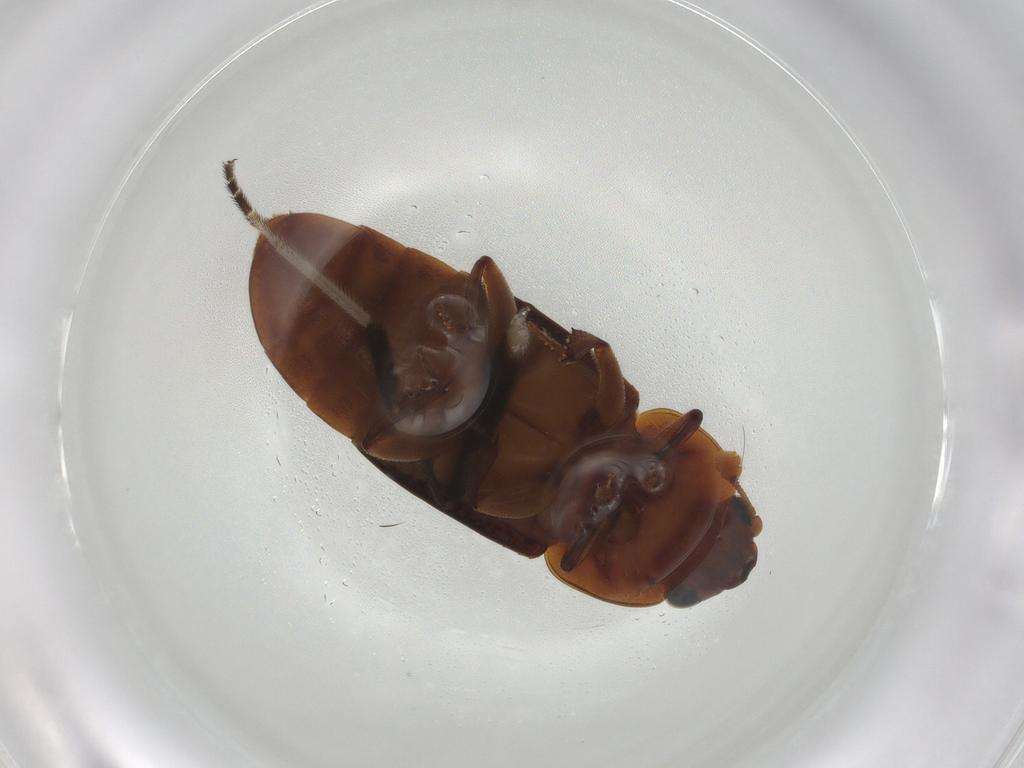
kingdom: Animalia
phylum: Arthropoda
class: Insecta
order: Coleoptera
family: Nitidulidae
